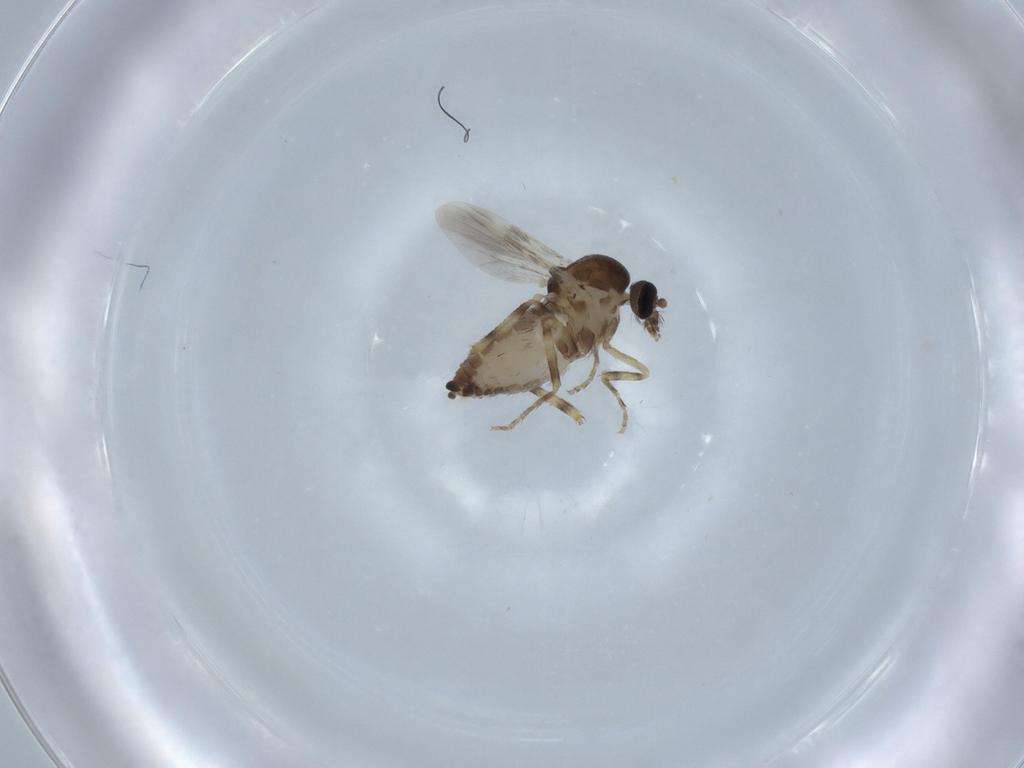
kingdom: Animalia
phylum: Arthropoda
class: Insecta
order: Diptera
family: Ceratopogonidae
